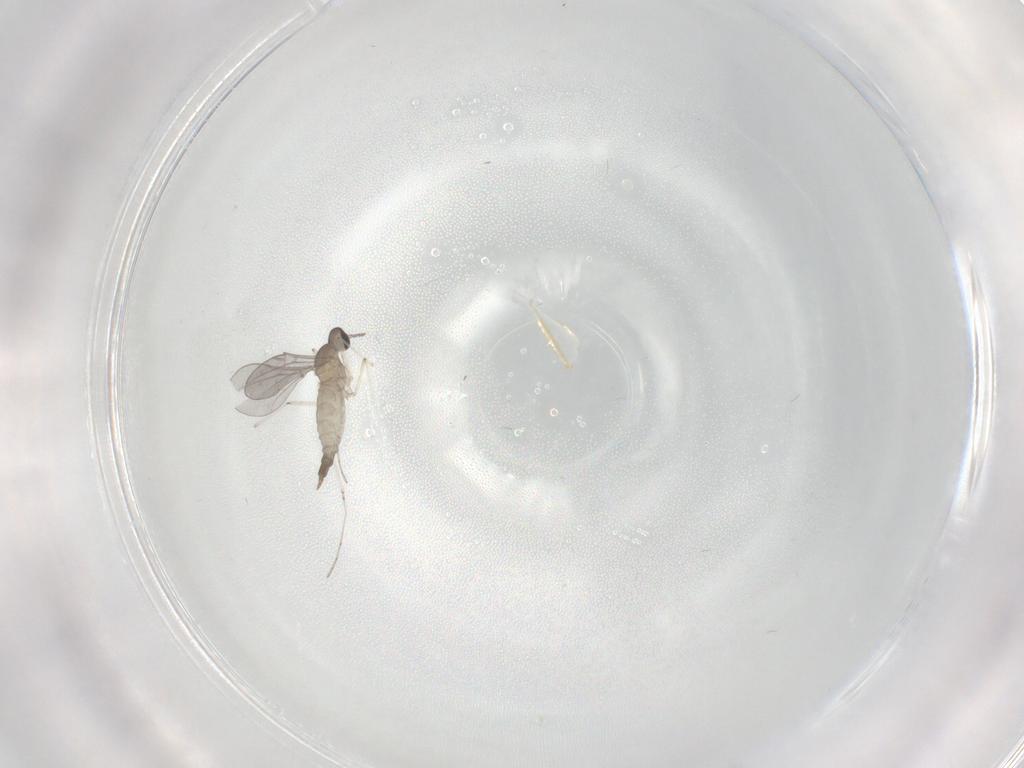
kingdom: Animalia
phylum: Arthropoda
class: Insecta
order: Diptera
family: Cecidomyiidae
